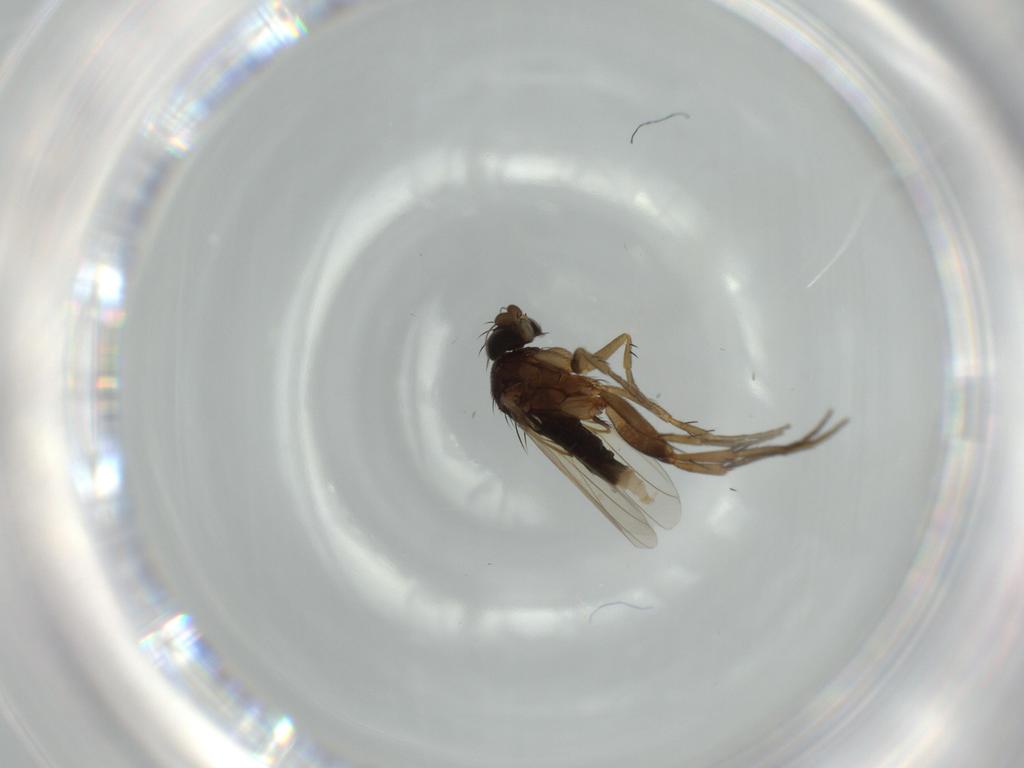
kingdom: Animalia
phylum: Arthropoda
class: Insecta
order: Diptera
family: Phoridae
